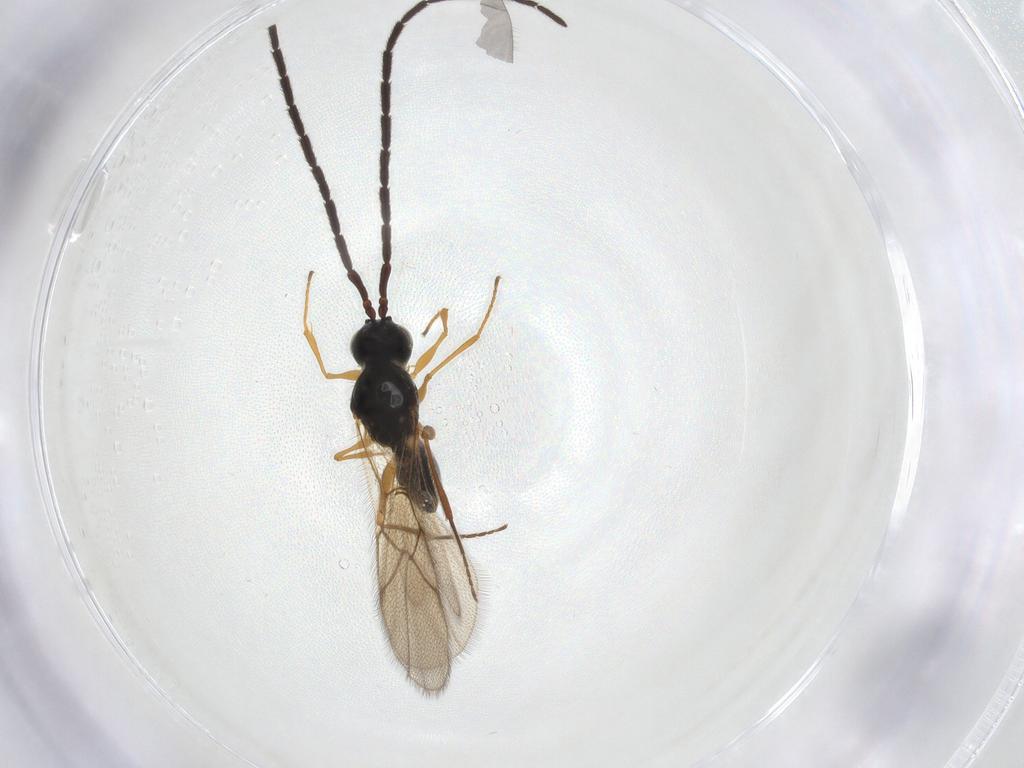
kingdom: Animalia
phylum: Arthropoda
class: Insecta
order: Hymenoptera
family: Figitidae
